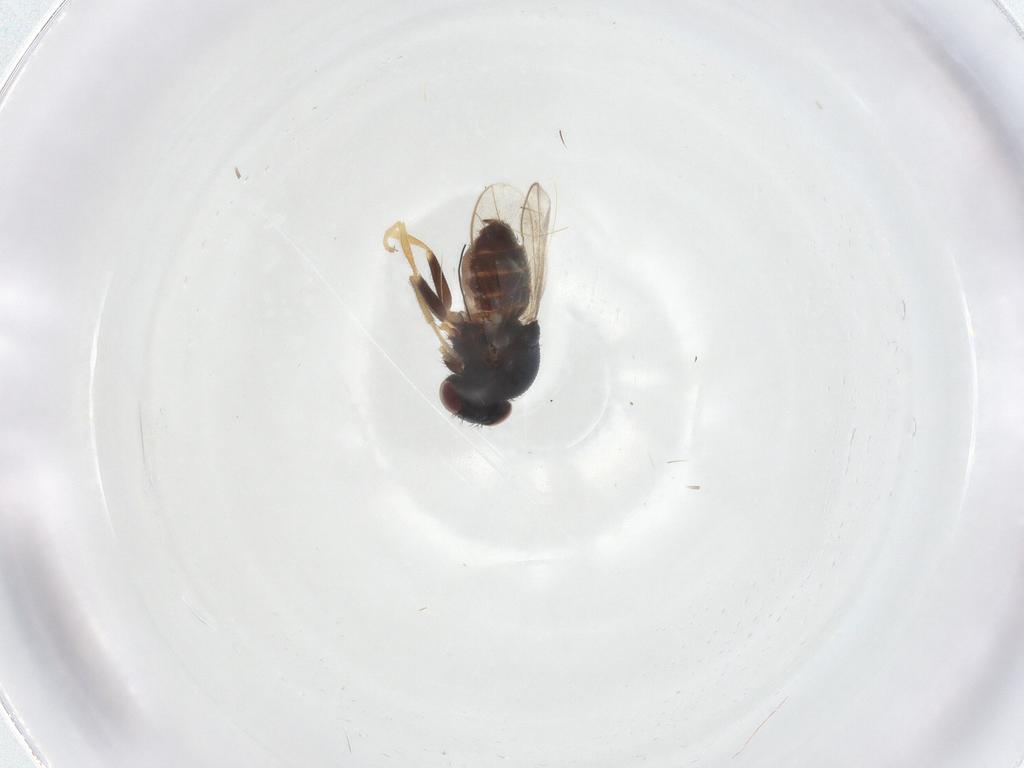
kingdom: Animalia
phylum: Arthropoda
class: Insecta
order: Diptera
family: Chloropidae
